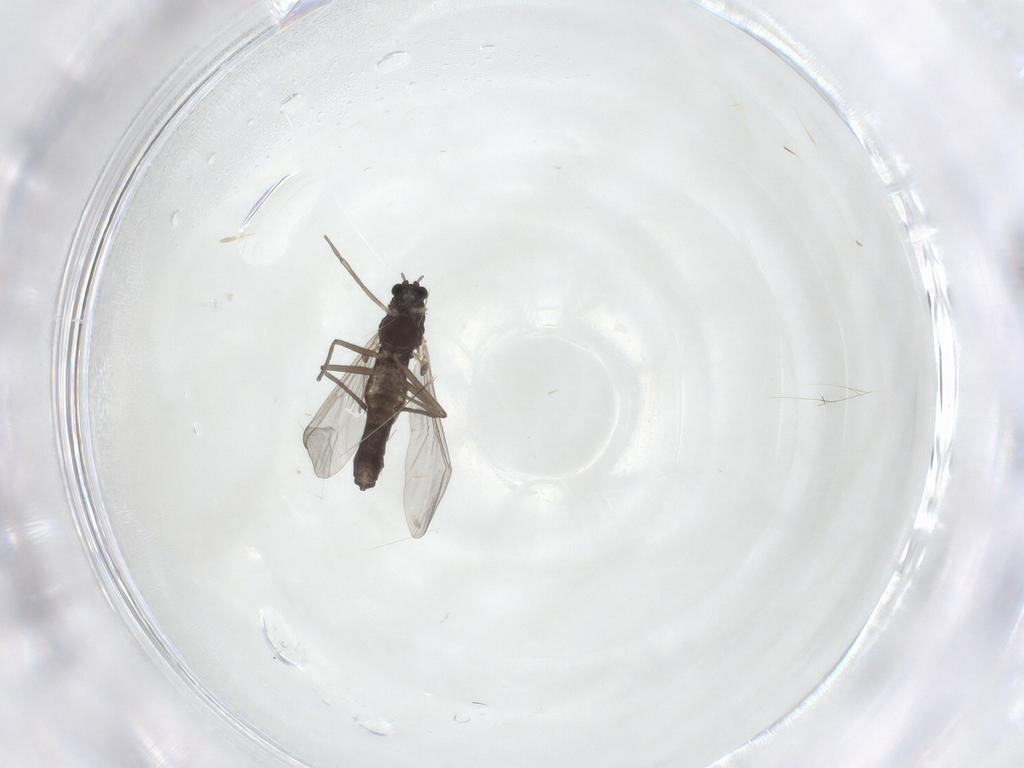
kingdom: Animalia
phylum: Arthropoda
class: Insecta
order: Diptera
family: Chironomidae
